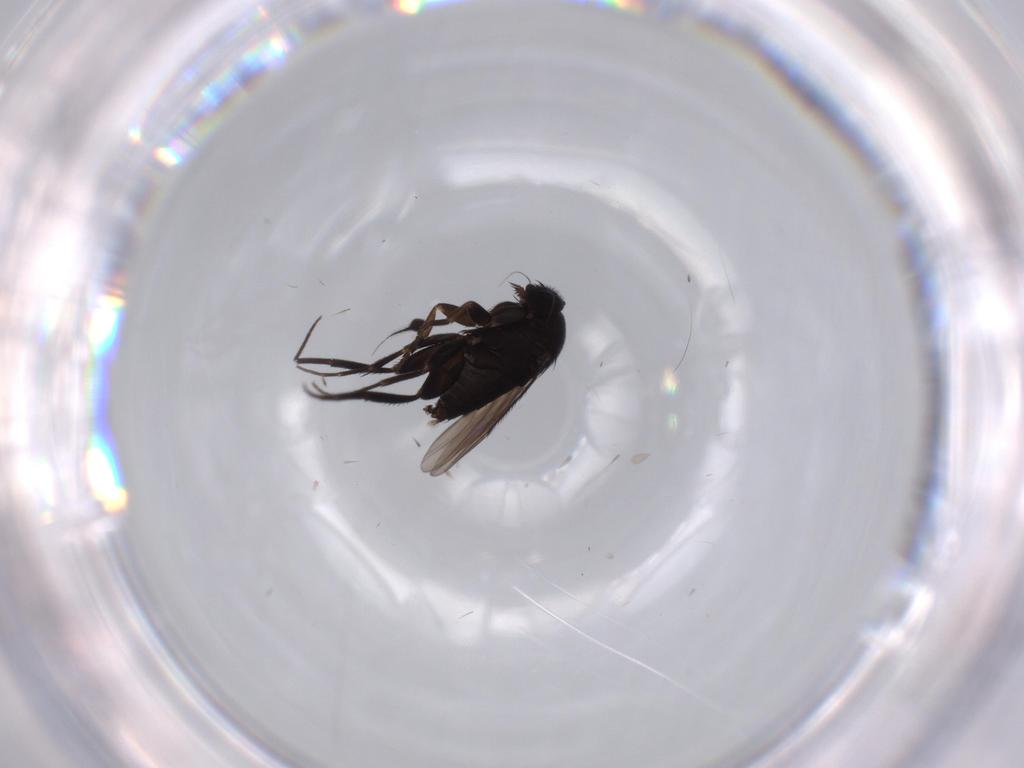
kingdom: Animalia
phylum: Arthropoda
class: Insecta
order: Diptera
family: Phoridae
